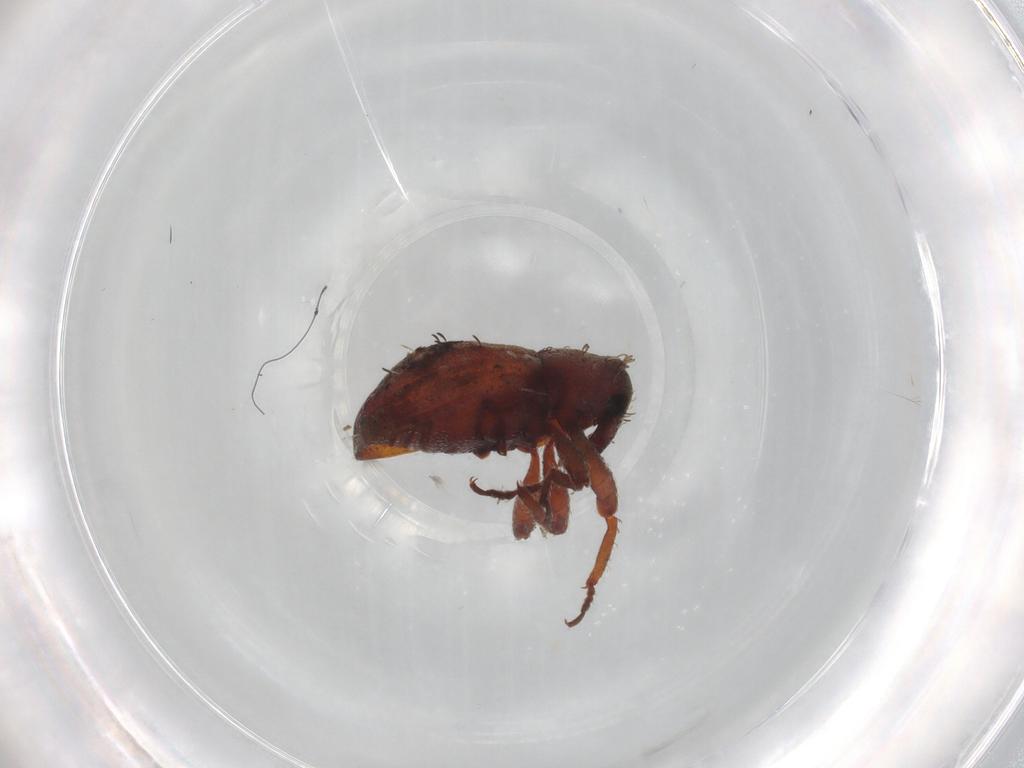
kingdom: Animalia
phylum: Arthropoda
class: Insecta
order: Coleoptera
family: Curculionidae
